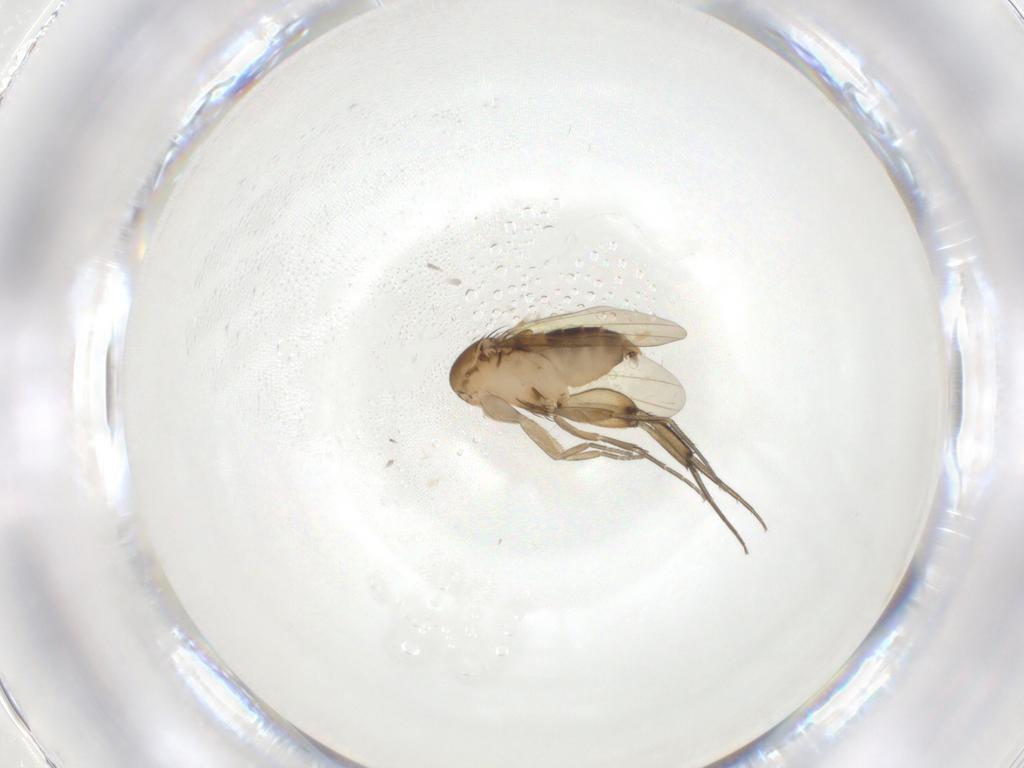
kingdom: Animalia
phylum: Arthropoda
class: Insecta
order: Diptera
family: Phoridae
